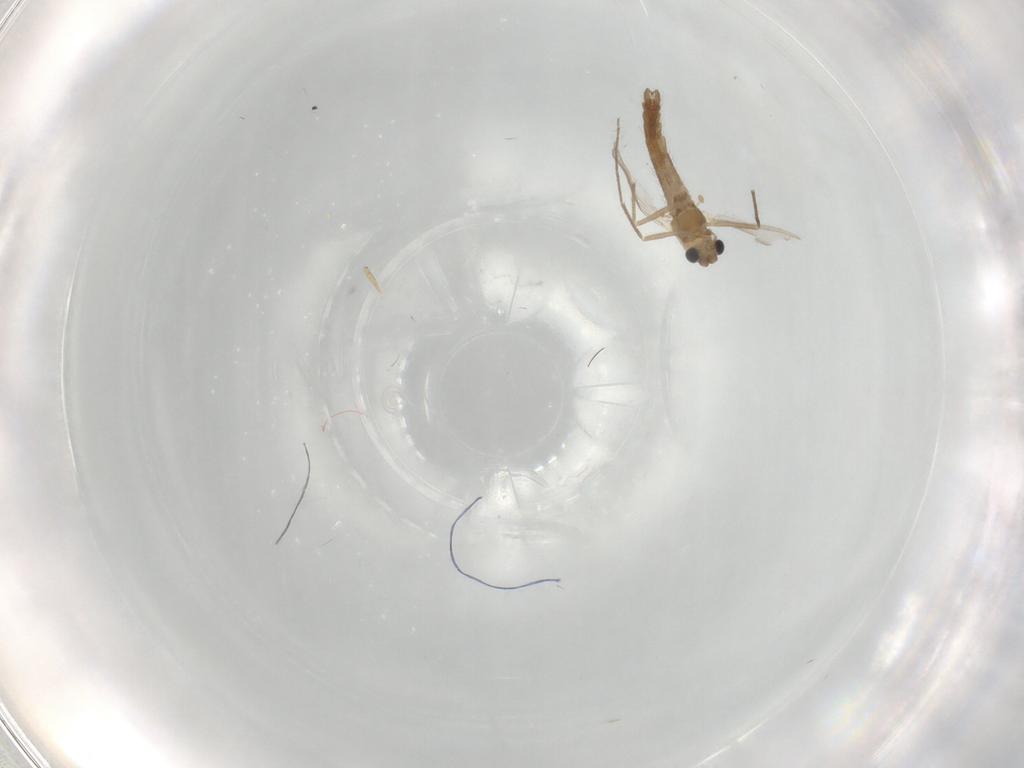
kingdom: Animalia
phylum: Arthropoda
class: Insecta
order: Diptera
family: Chironomidae
